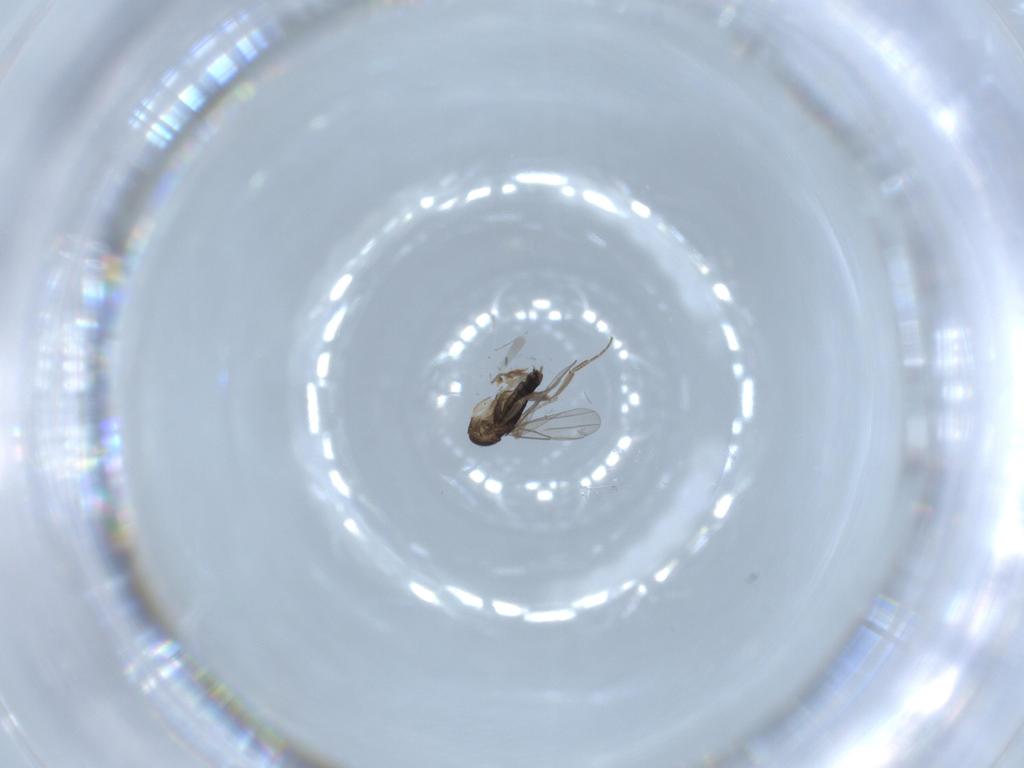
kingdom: Animalia
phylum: Arthropoda
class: Insecta
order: Diptera
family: Phoridae
